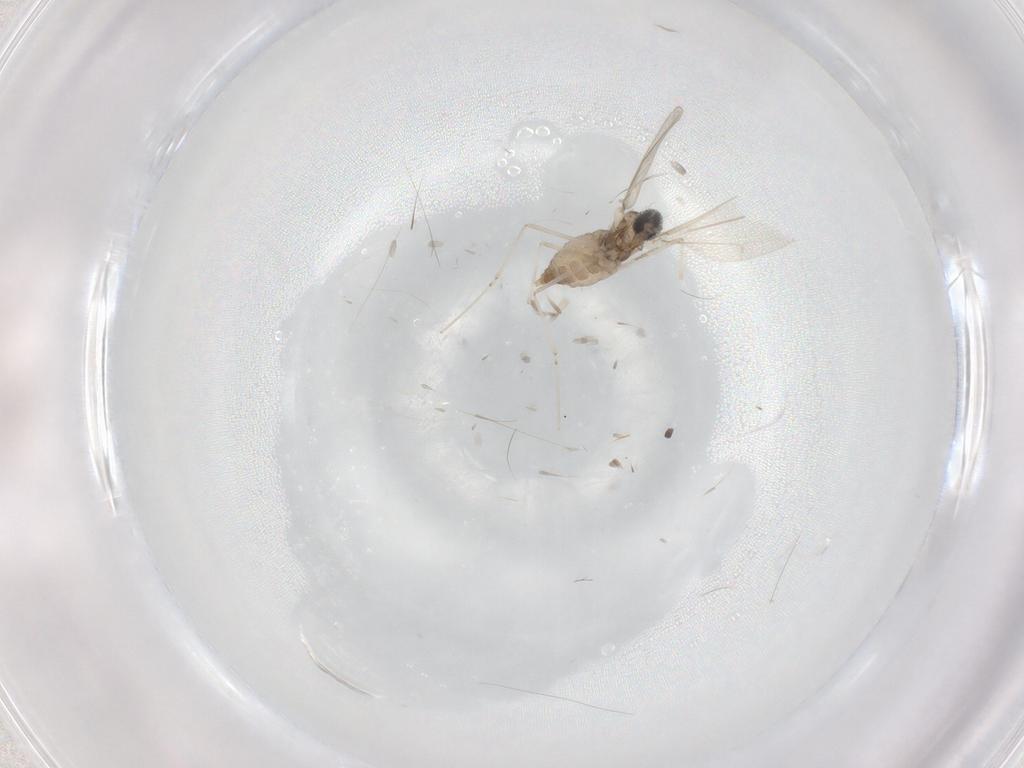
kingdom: Animalia
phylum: Arthropoda
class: Insecta
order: Diptera
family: Cecidomyiidae
